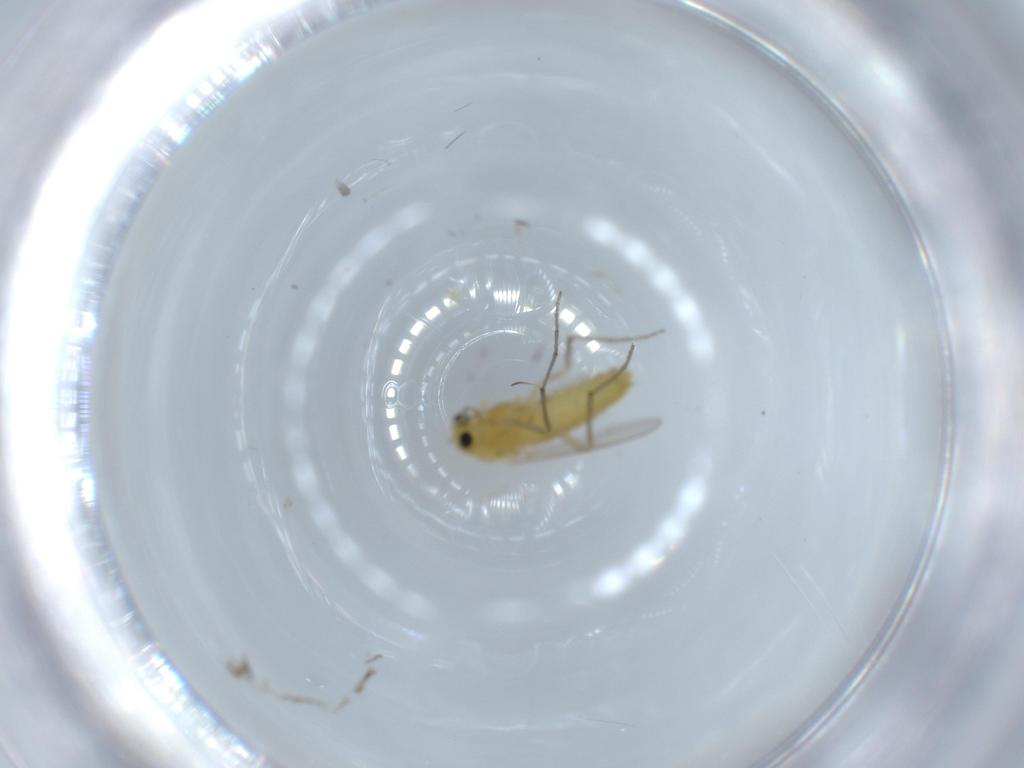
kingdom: Animalia
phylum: Arthropoda
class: Insecta
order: Diptera
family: Chironomidae
